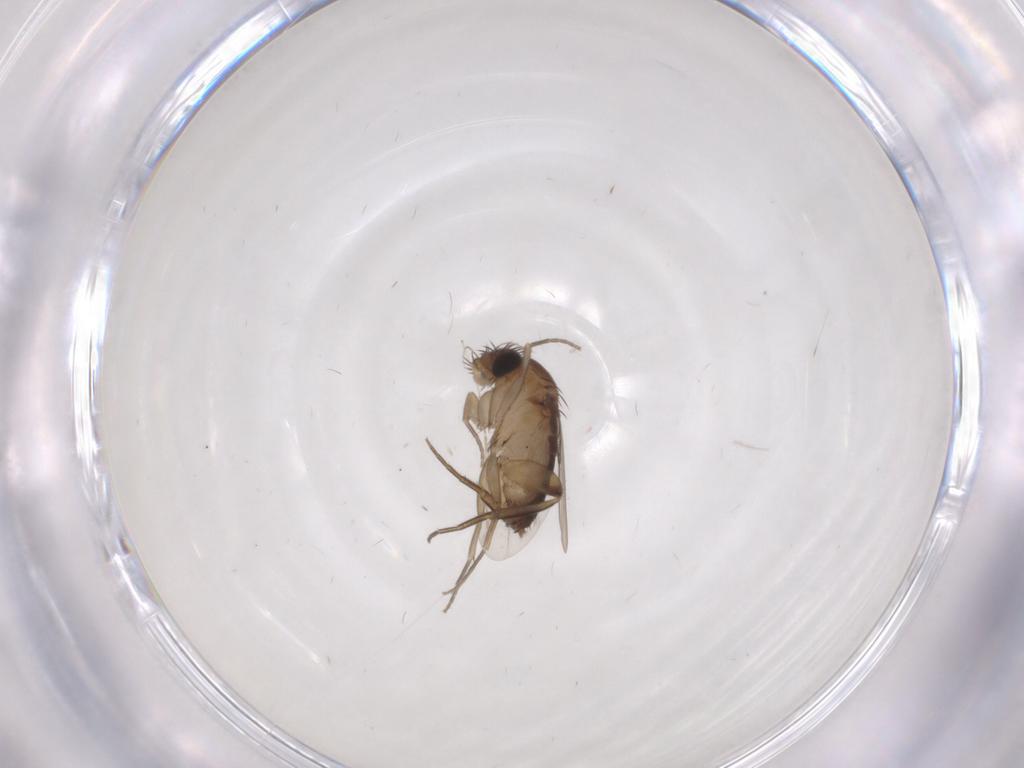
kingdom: Animalia
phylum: Arthropoda
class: Insecta
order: Diptera
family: Phoridae
